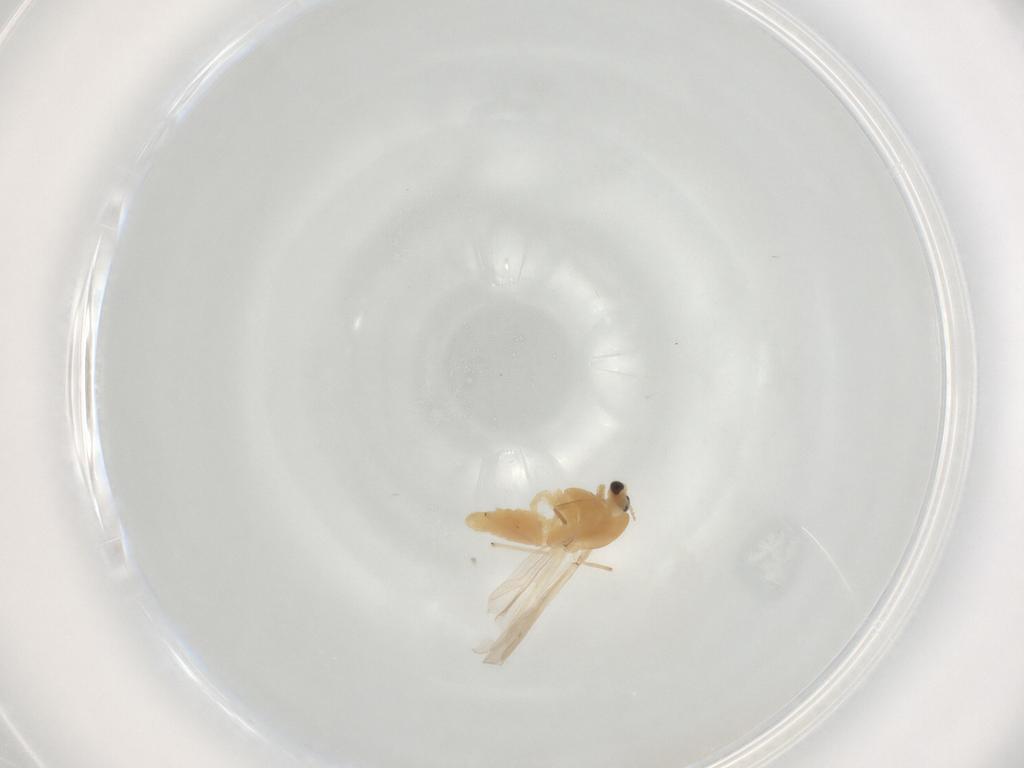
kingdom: Animalia
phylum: Arthropoda
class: Insecta
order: Diptera
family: Chironomidae
